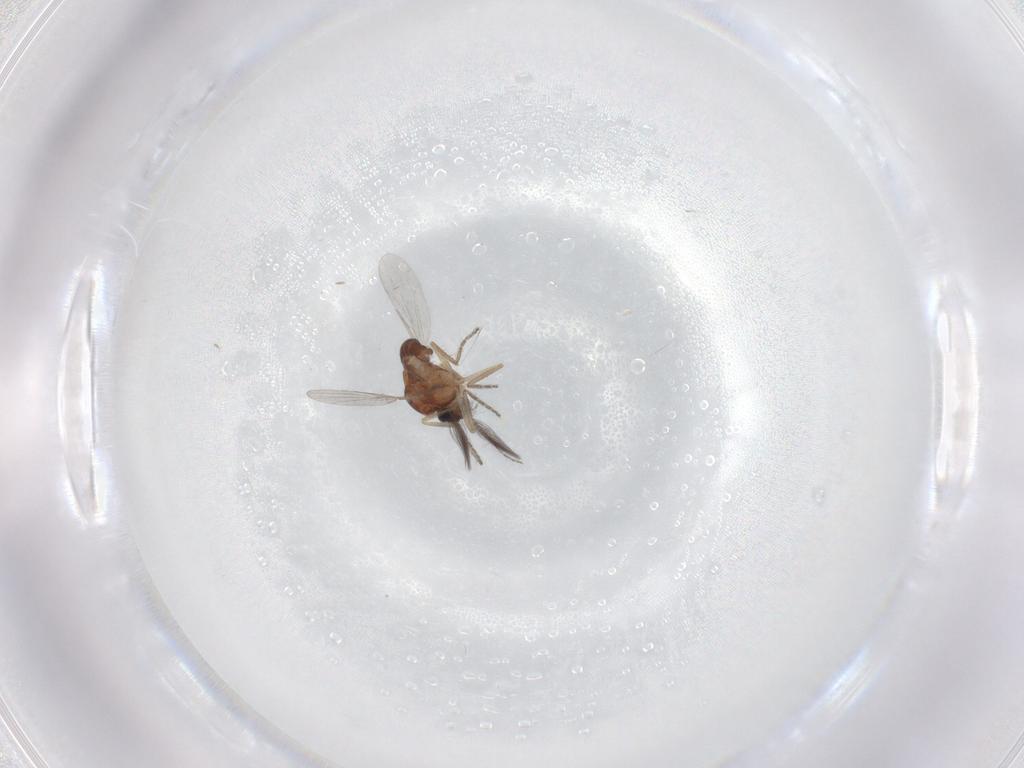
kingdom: Animalia
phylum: Arthropoda
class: Insecta
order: Diptera
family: Ceratopogonidae
